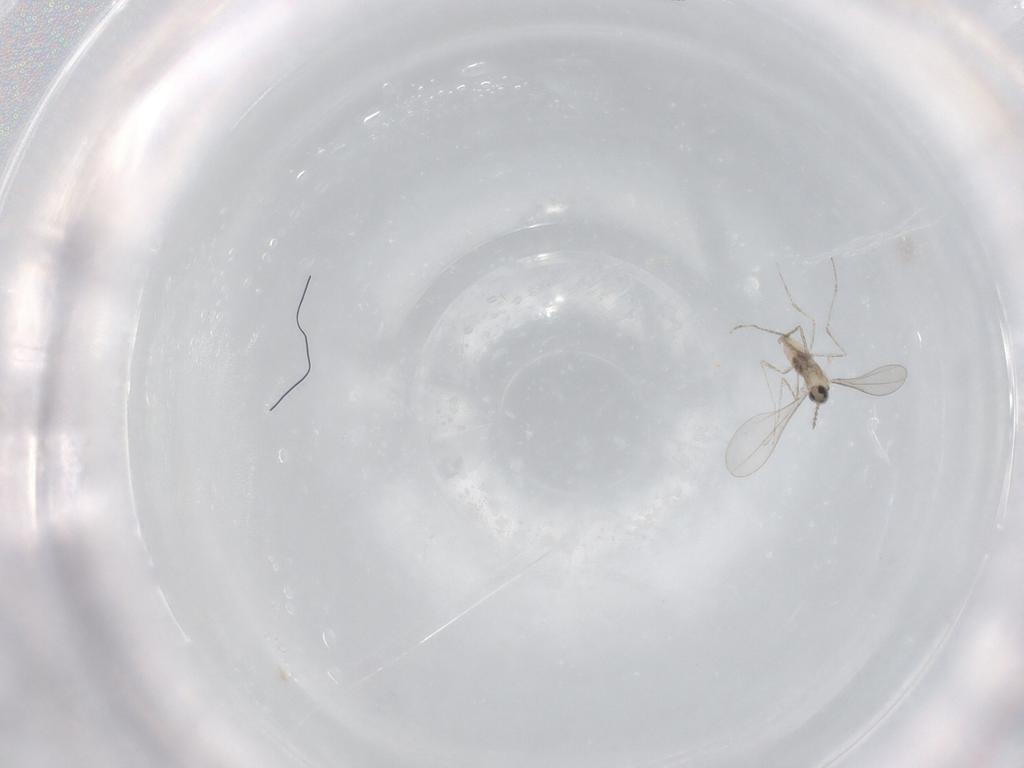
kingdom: Animalia
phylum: Arthropoda
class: Insecta
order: Diptera
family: Cecidomyiidae
